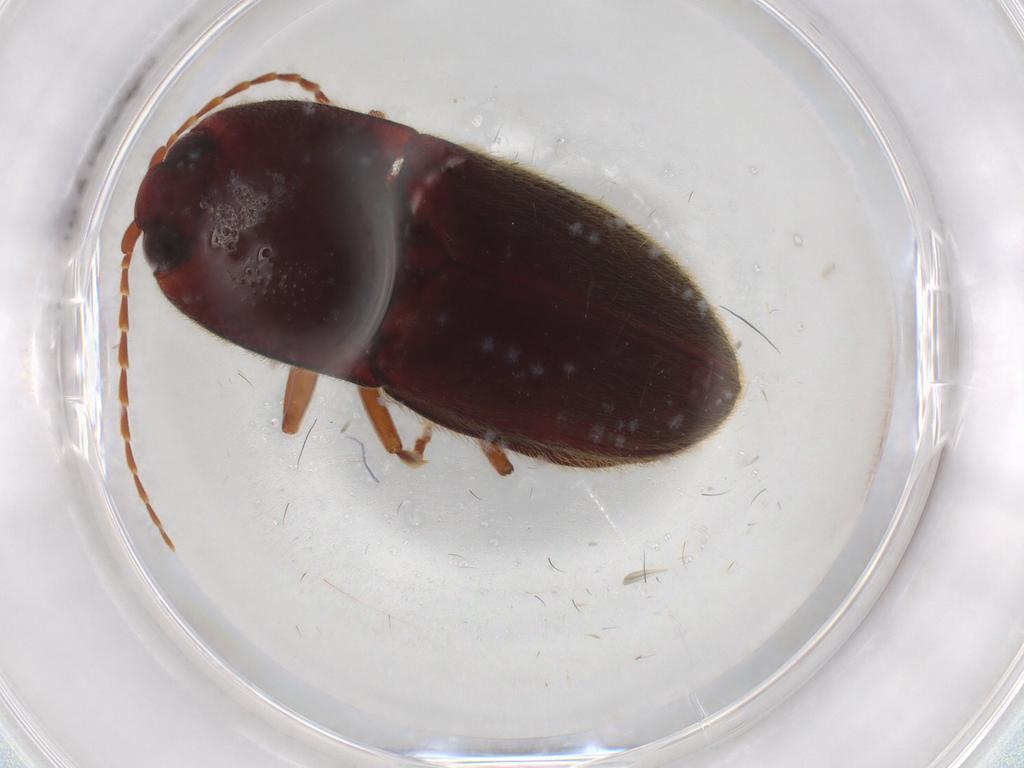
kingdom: Animalia
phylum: Arthropoda
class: Insecta
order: Coleoptera
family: Elateridae
